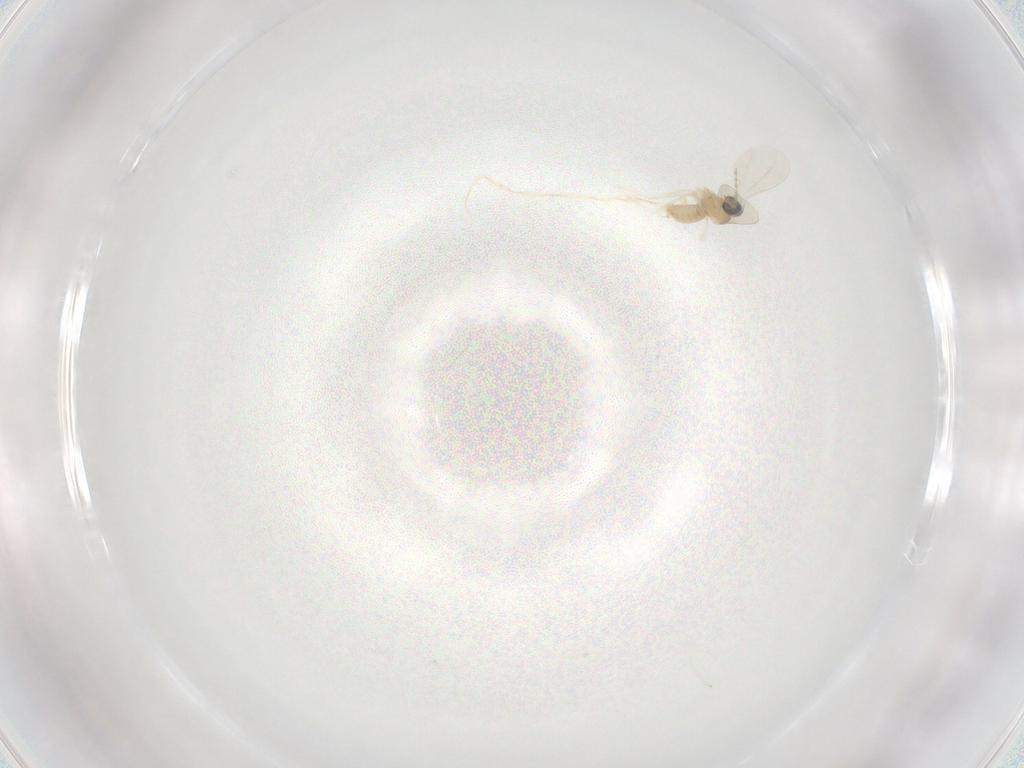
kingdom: Animalia
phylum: Arthropoda
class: Insecta
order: Diptera
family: Cecidomyiidae
